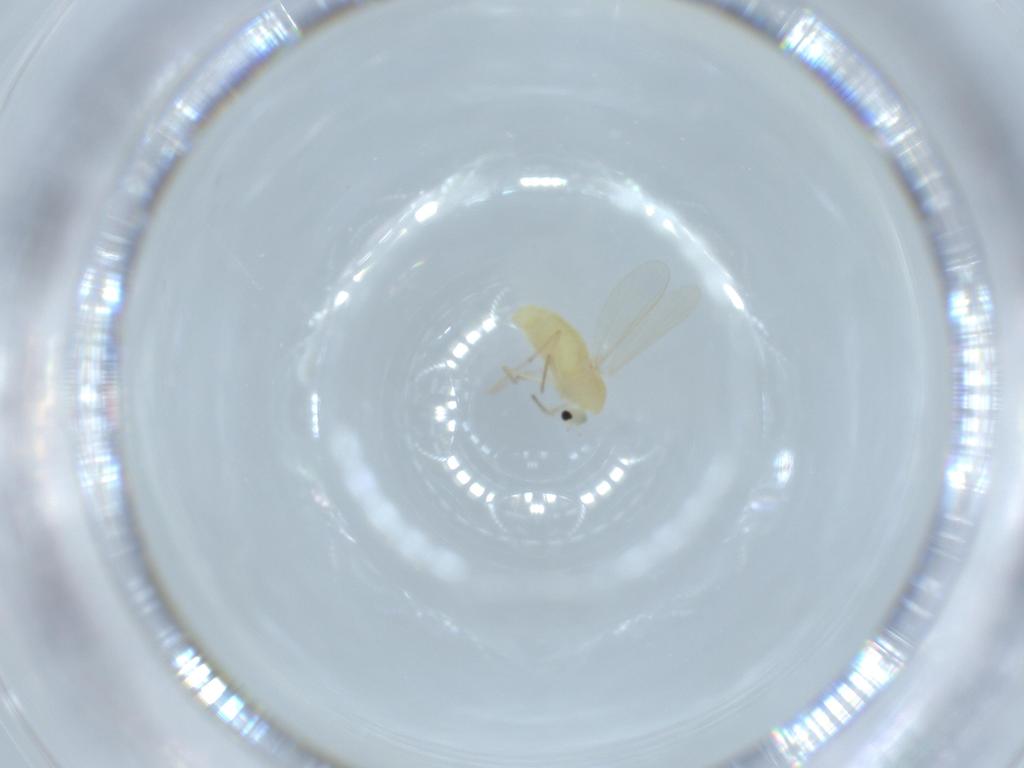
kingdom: Animalia
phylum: Arthropoda
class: Insecta
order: Diptera
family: Chironomidae
